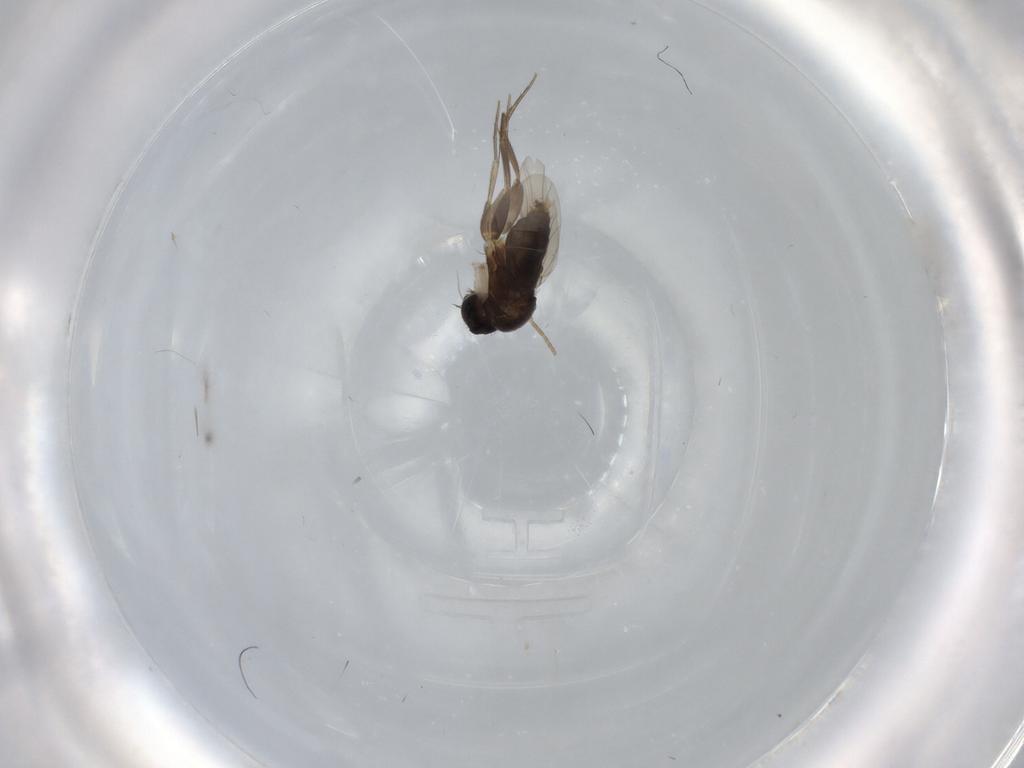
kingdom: Animalia
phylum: Arthropoda
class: Insecta
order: Diptera
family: Phoridae
